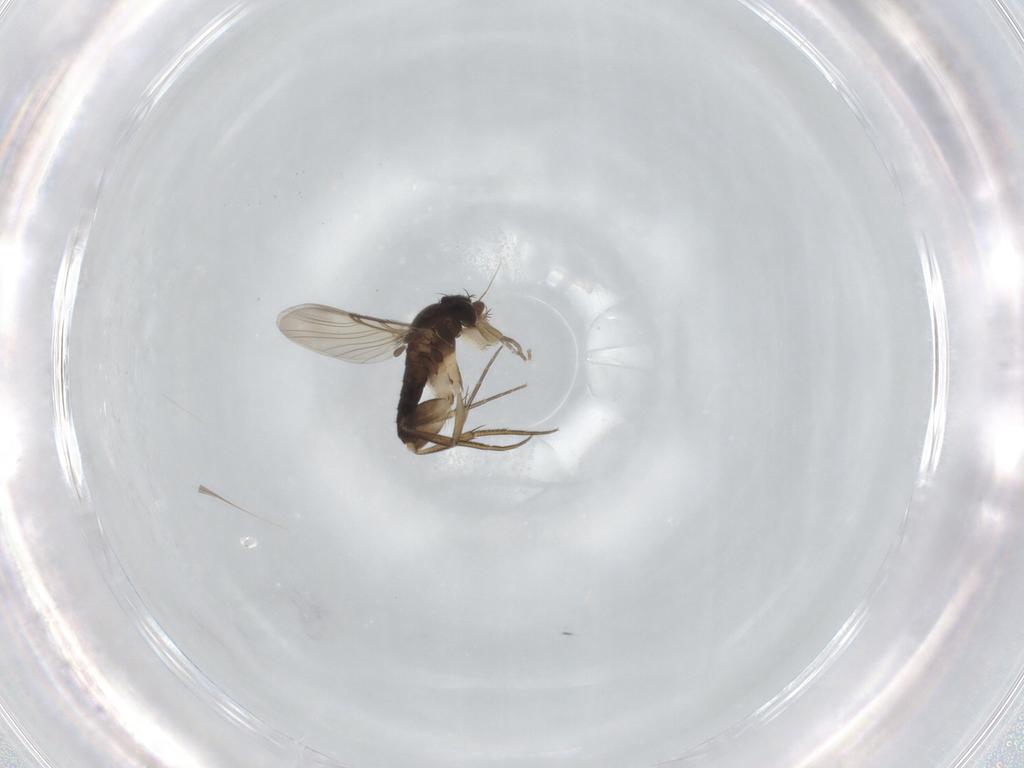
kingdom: Animalia
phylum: Arthropoda
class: Insecta
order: Diptera
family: Phoridae
